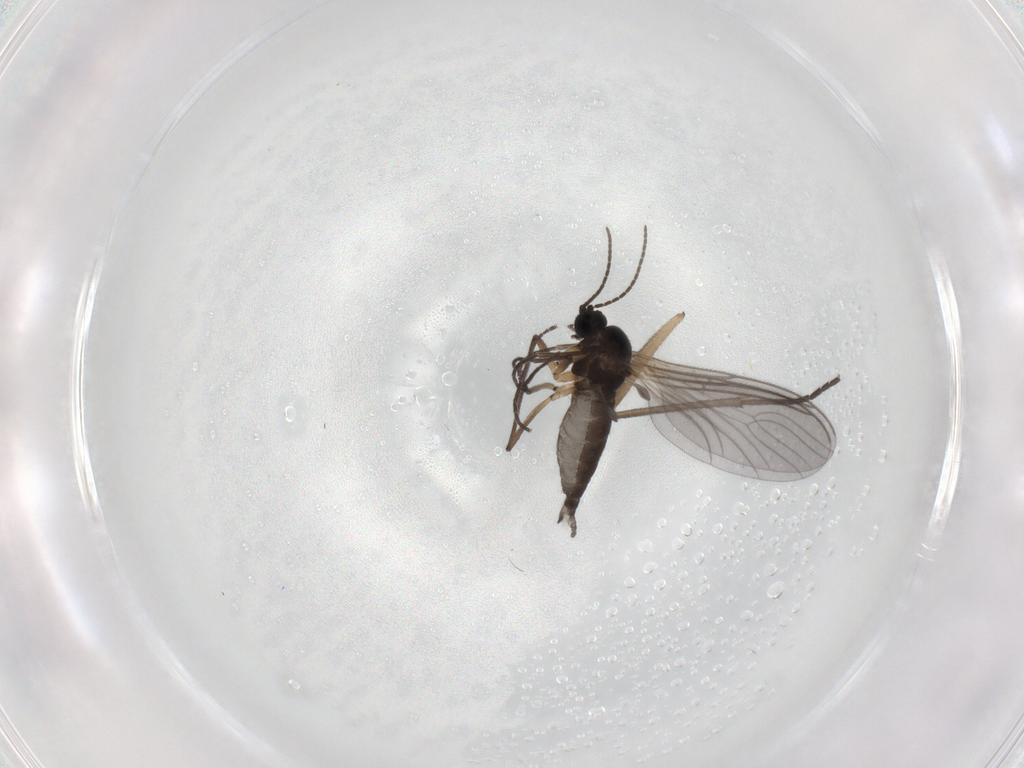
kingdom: Animalia
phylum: Arthropoda
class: Insecta
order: Diptera
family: Sciaridae
